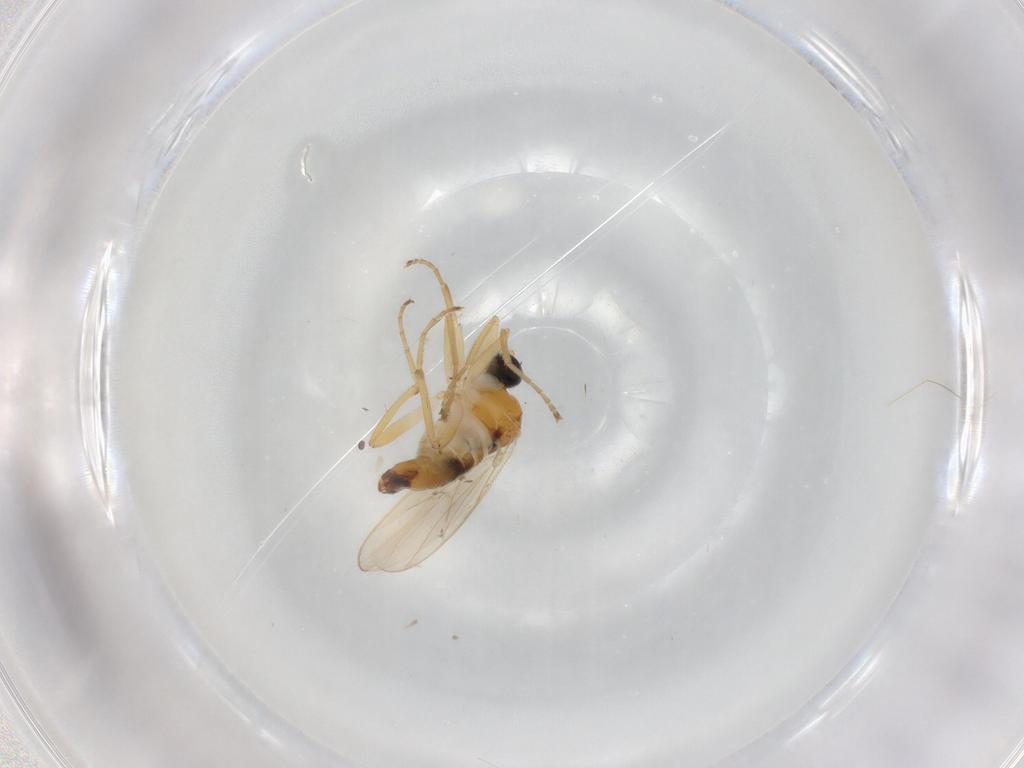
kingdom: Animalia
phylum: Arthropoda
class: Insecta
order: Diptera
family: Hybotidae
